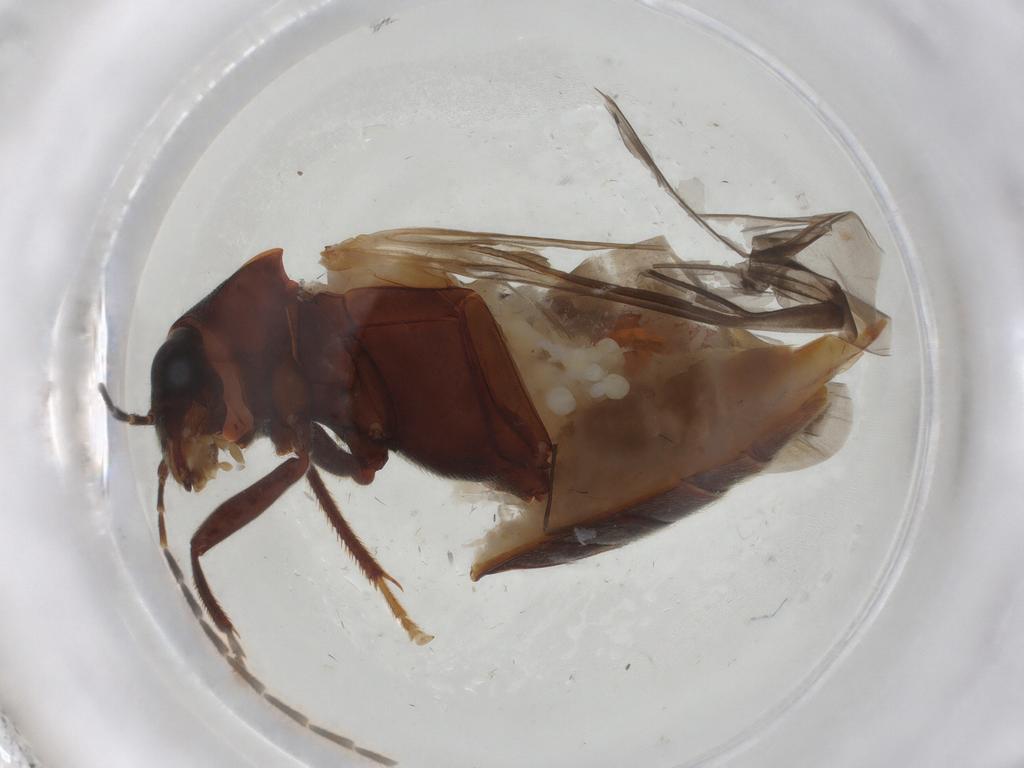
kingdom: Animalia
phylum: Arthropoda
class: Insecta
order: Coleoptera
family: Ptilodactylidae
